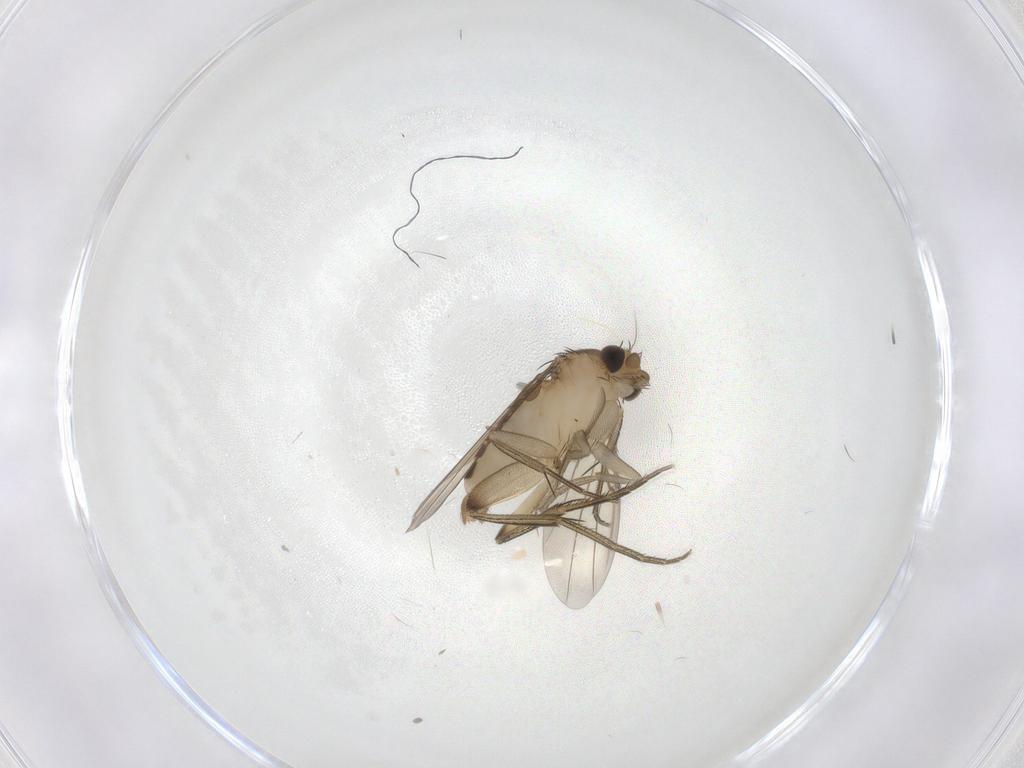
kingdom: Animalia
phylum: Arthropoda
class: Insecta
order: Diptera
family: Phoridae
